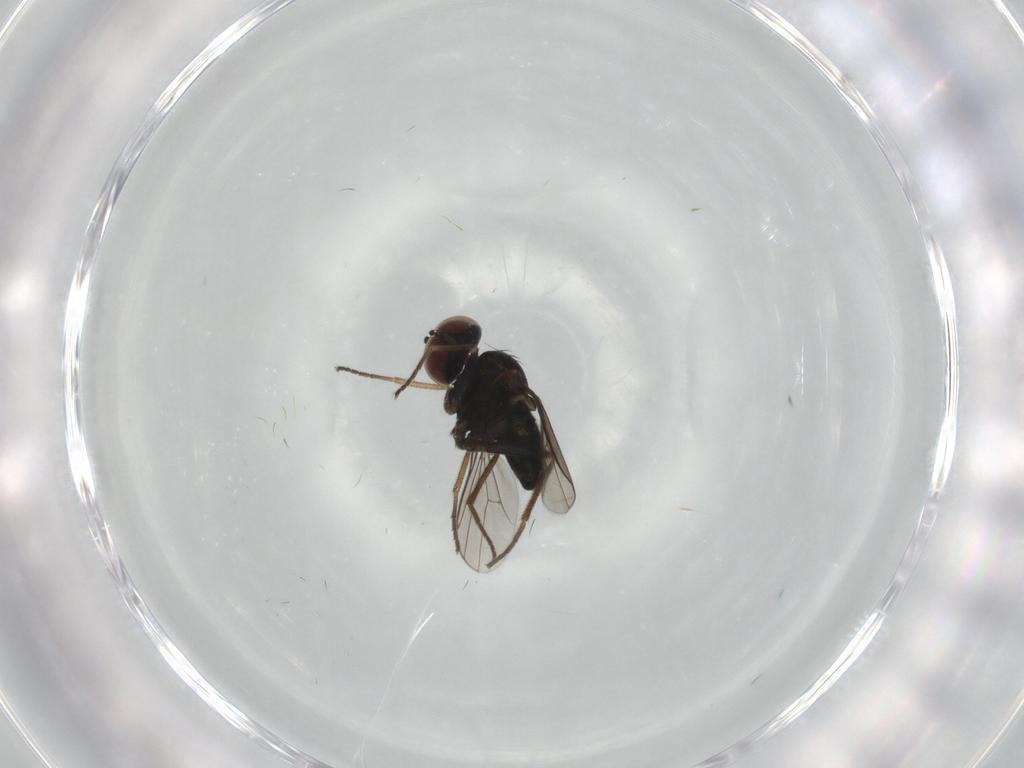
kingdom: Animalia
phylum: Arthropoda
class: Insecta
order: Diptera
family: Dolichopodidae
